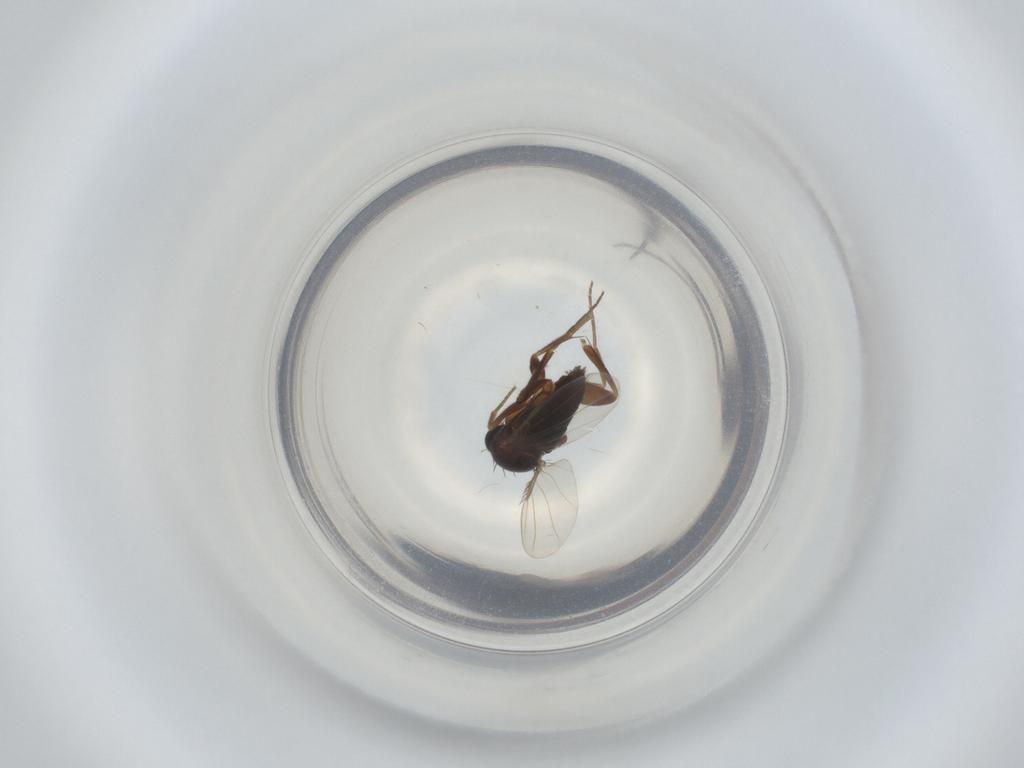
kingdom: Animalia
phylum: Arthropoda
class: Insecta
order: Diptera
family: Phoridae
